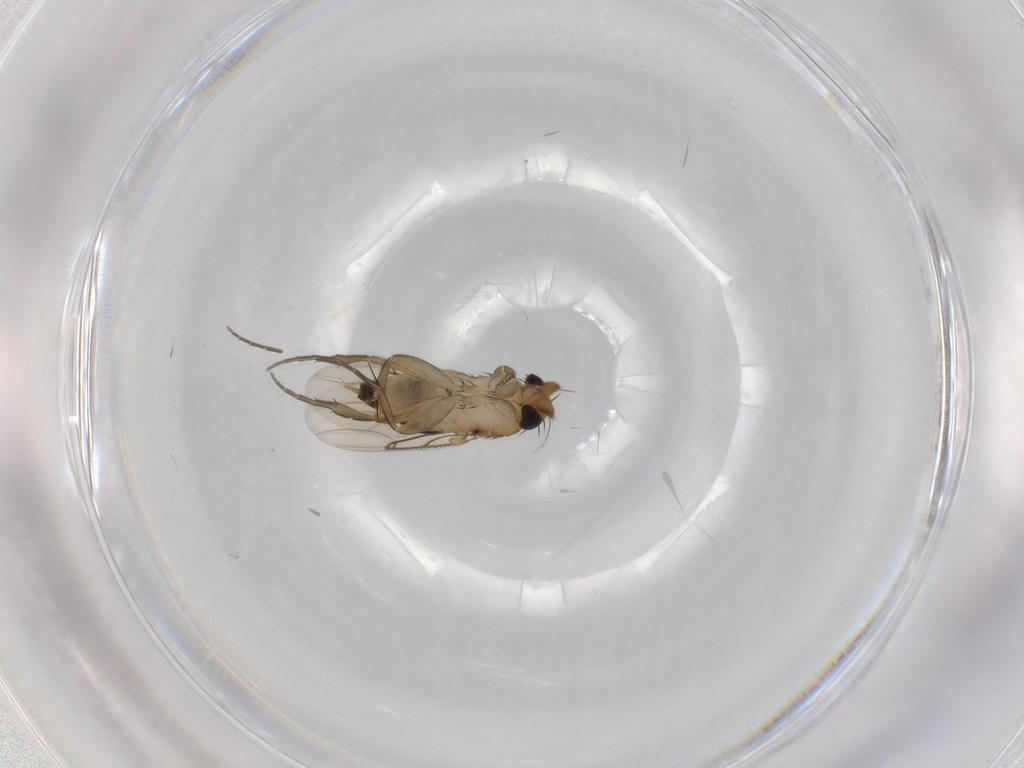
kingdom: Animalia
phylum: Arthropoda
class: Insecta
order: Diptera
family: Phoridae
